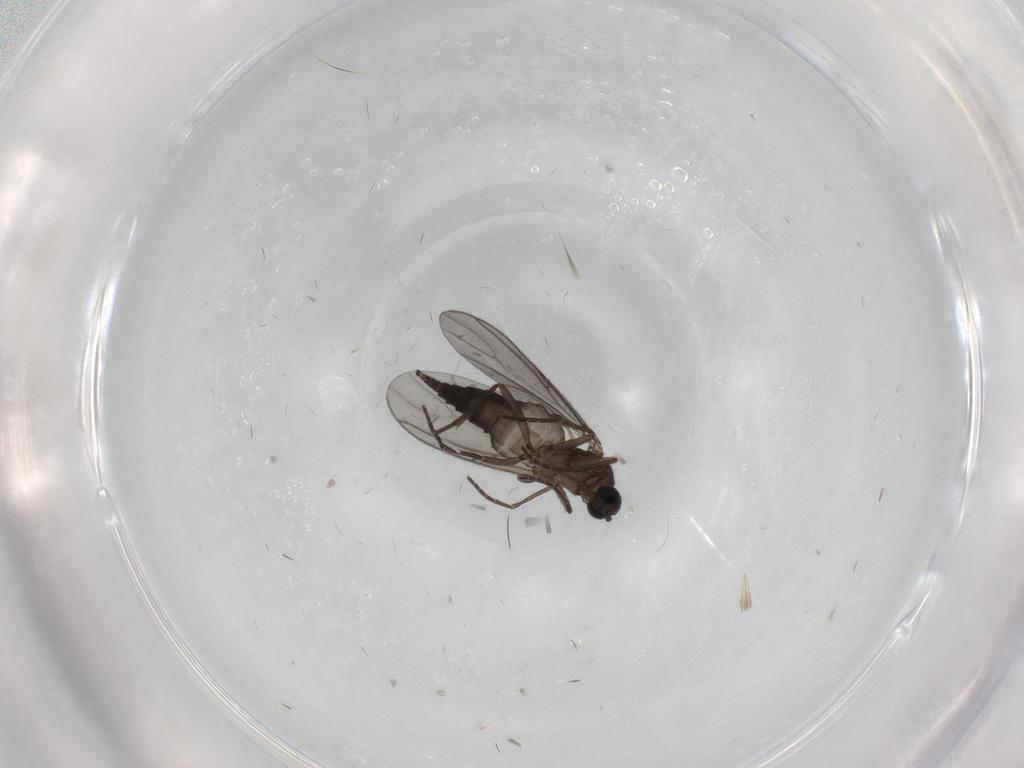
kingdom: Animalia
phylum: Arthropoda
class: Insecta
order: Diptera
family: Sciaridae
